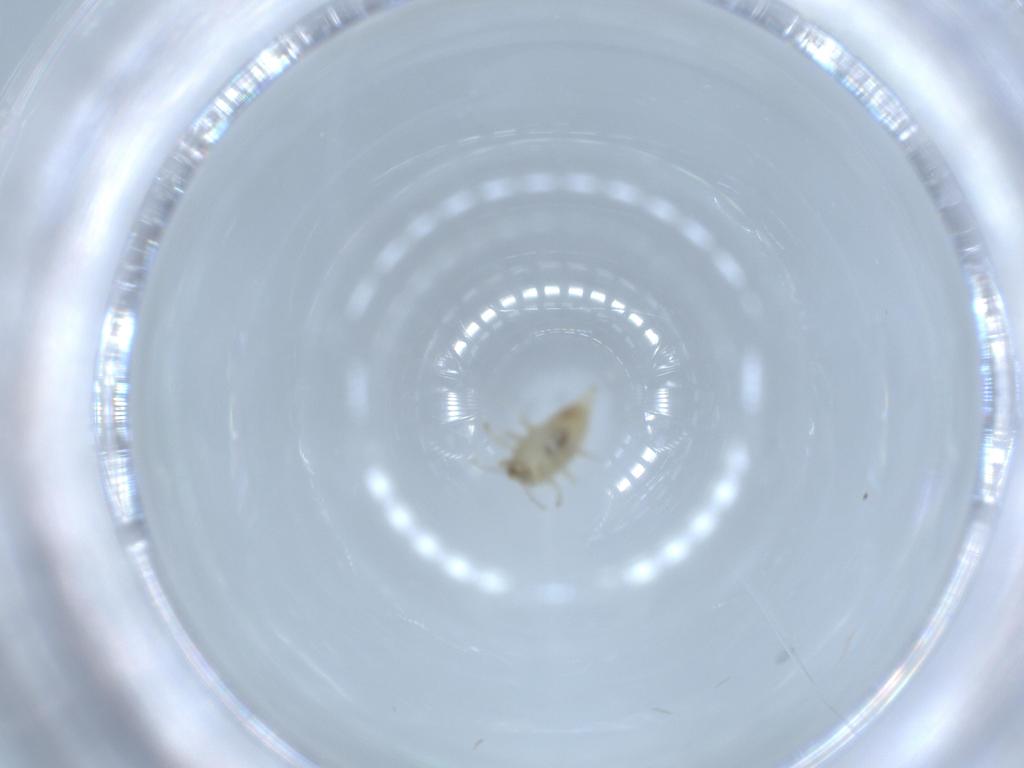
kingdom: Animalia
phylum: Arthropoda
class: Insecta
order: Neuroptera
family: Coniopterygidae
